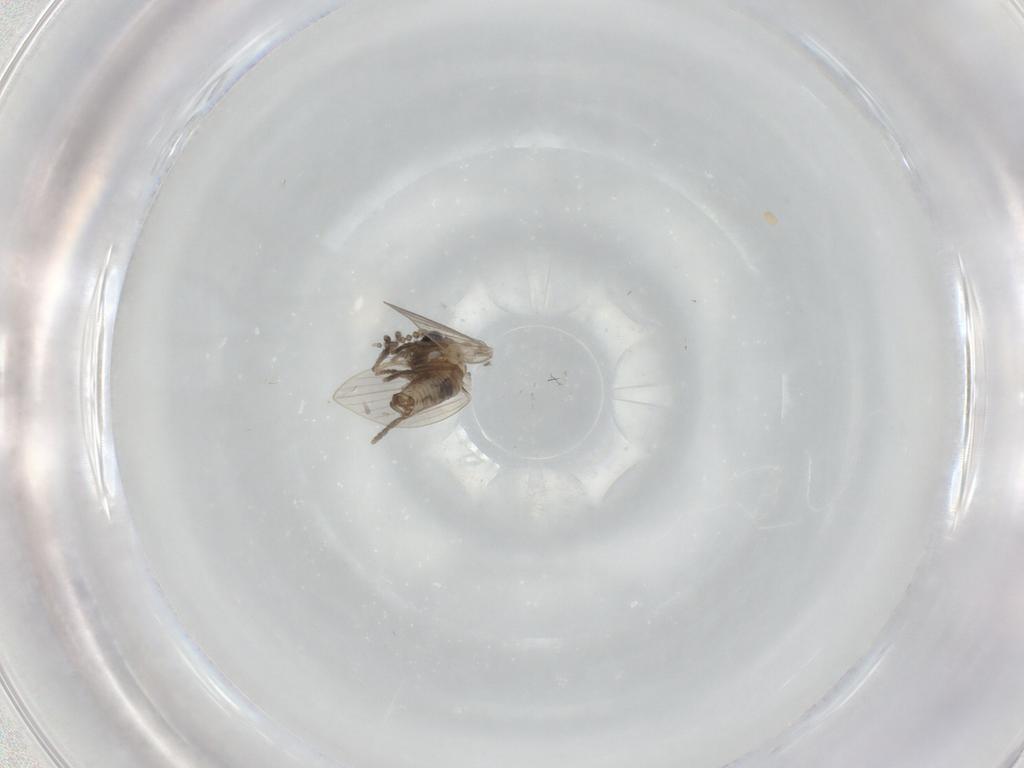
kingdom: Animalia
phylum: Arthropoda
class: Insecta
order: Diptera
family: Psychodidae
